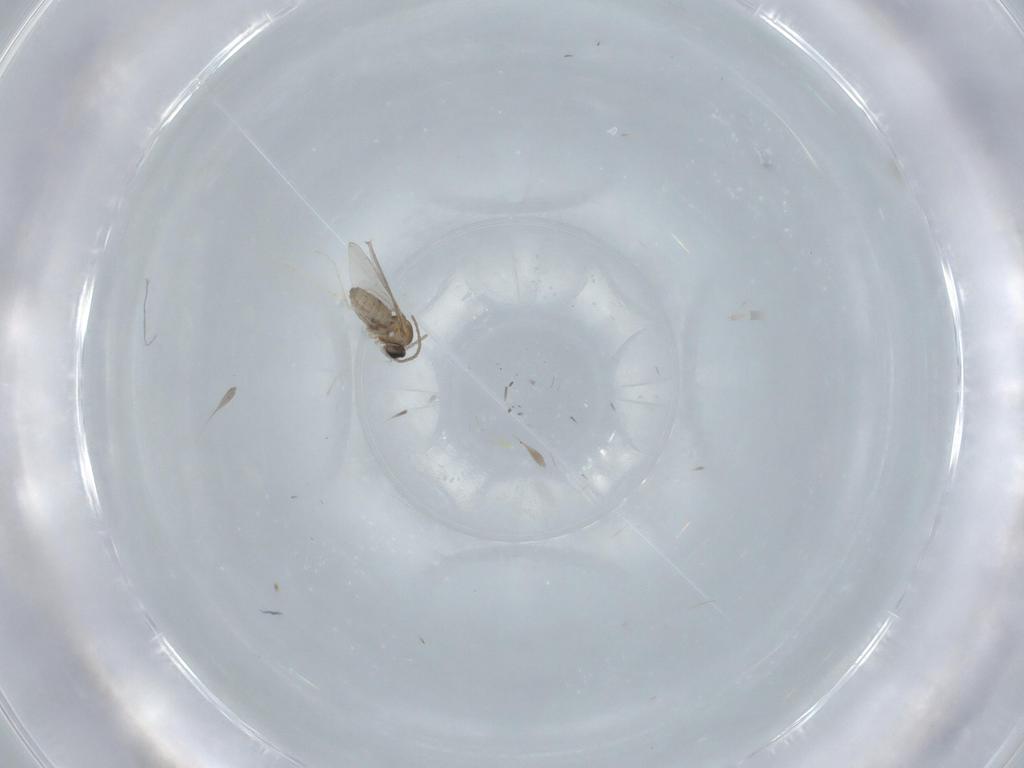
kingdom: Animalia
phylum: Arthropoda
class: Insecta
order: Diptera
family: Cecidomyiidae
